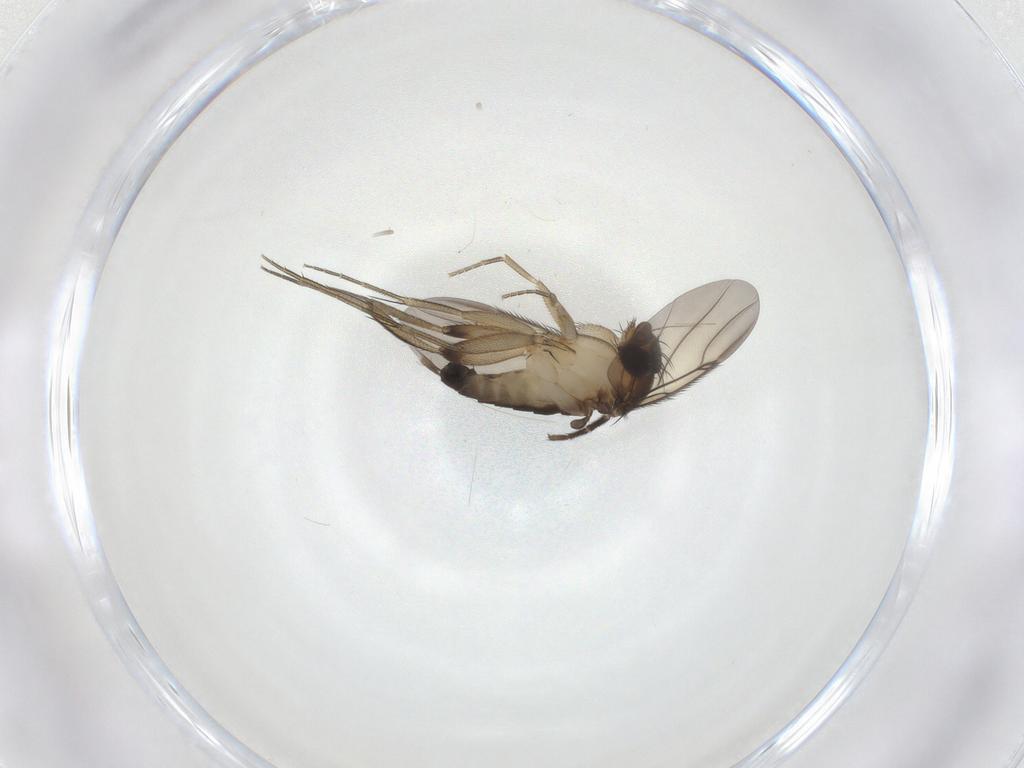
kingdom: Animalia
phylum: Arthropoda
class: Insecta
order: Diptera
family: Mycetophilidae
